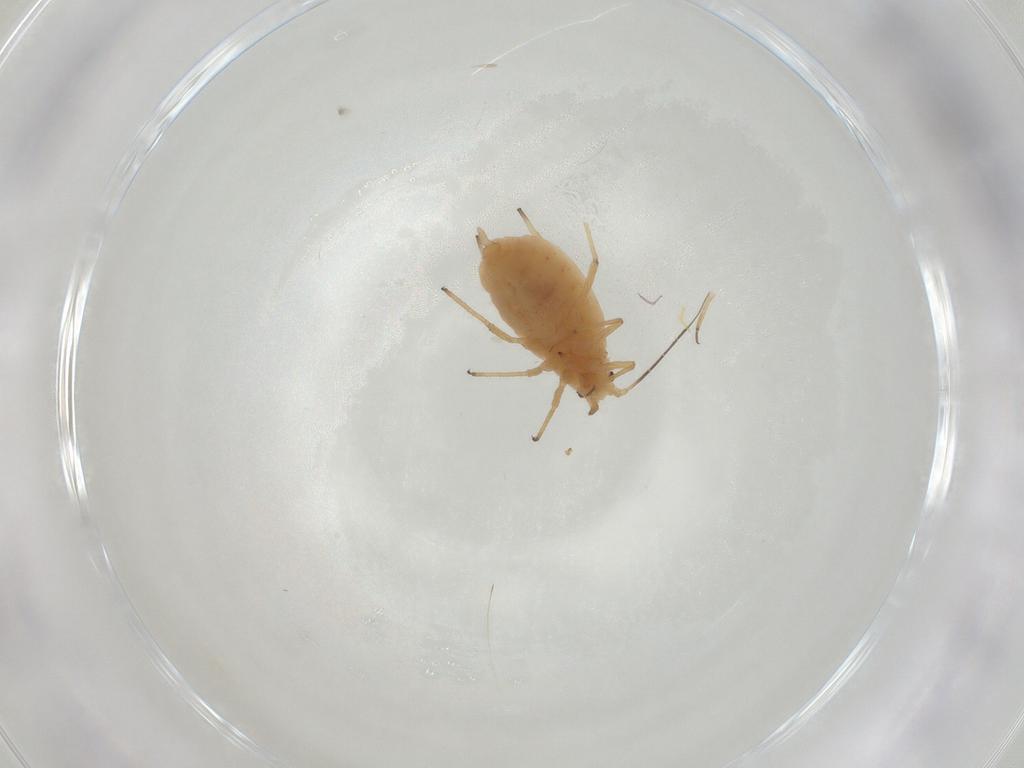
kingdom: Animalia
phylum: Arthropoda
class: Insecta
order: Hemiptera
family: Aphididae
